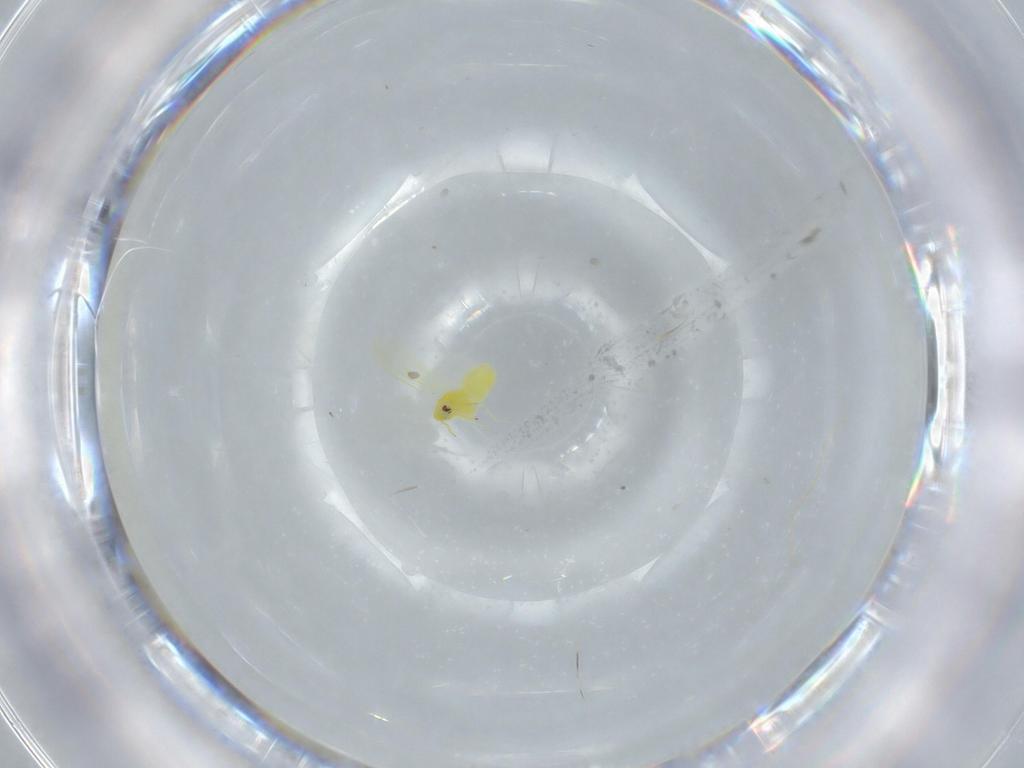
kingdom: Animalia
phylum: Arthropoda
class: Insecta
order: Hemiptera
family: Aleyrodidae
